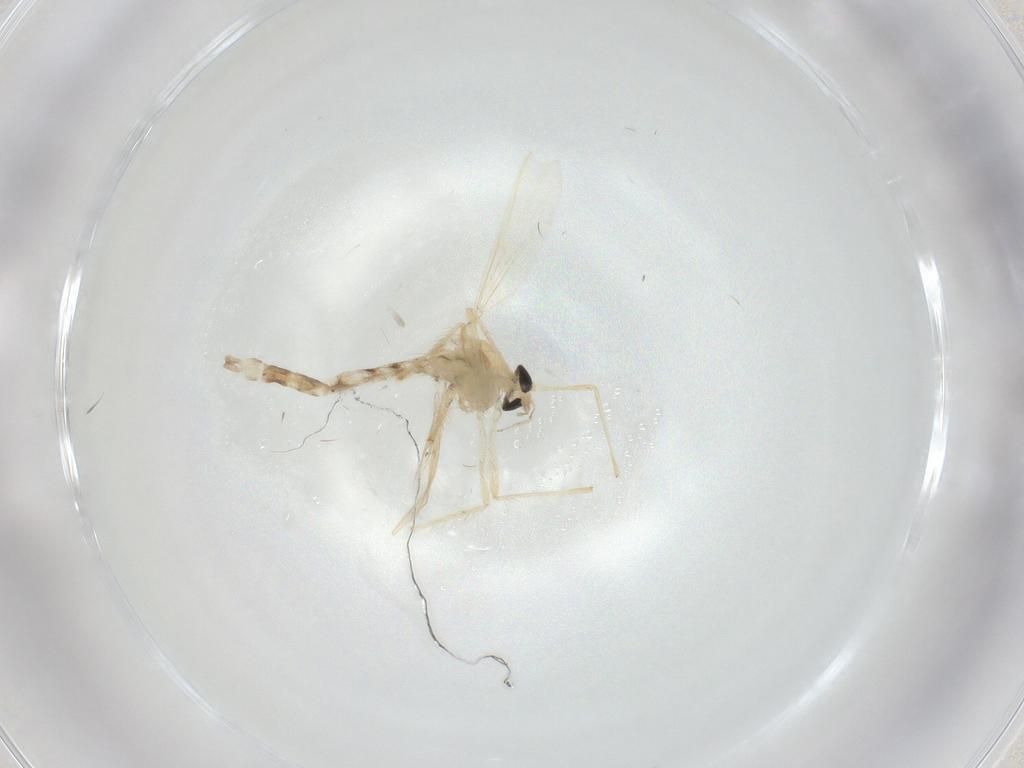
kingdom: Animalia
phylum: Arthropoda
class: Insecta
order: Diptera
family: Chironomidae
